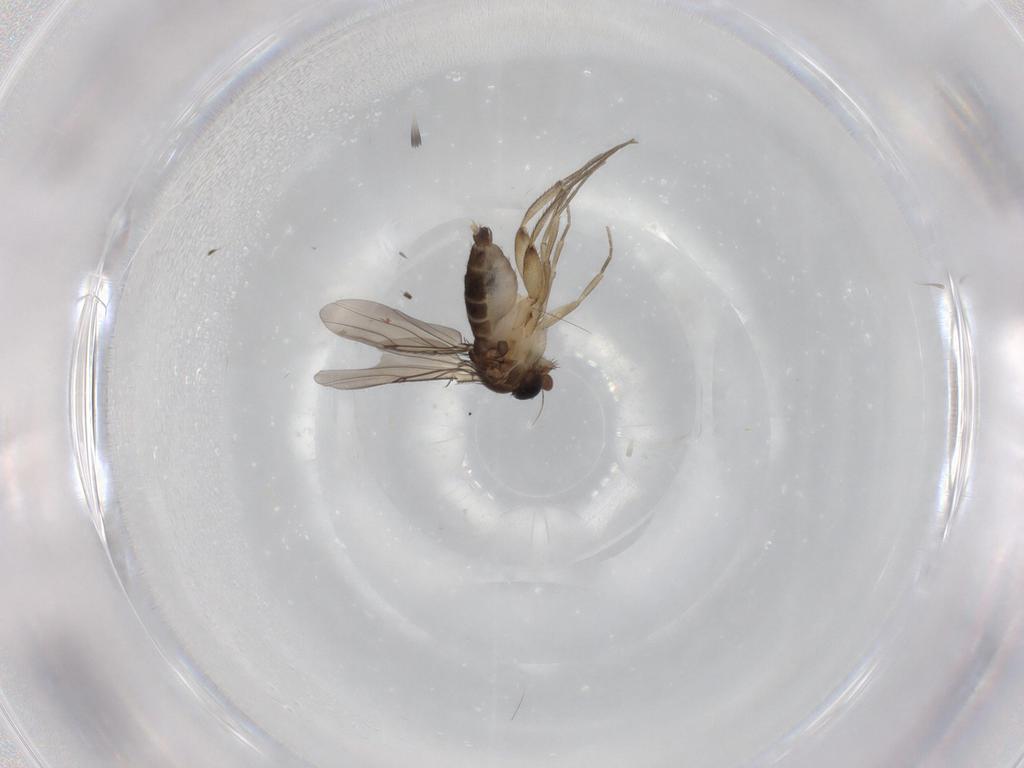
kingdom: Animalia
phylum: Arthropoda
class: Insecta
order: Diptera
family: Phoridae
